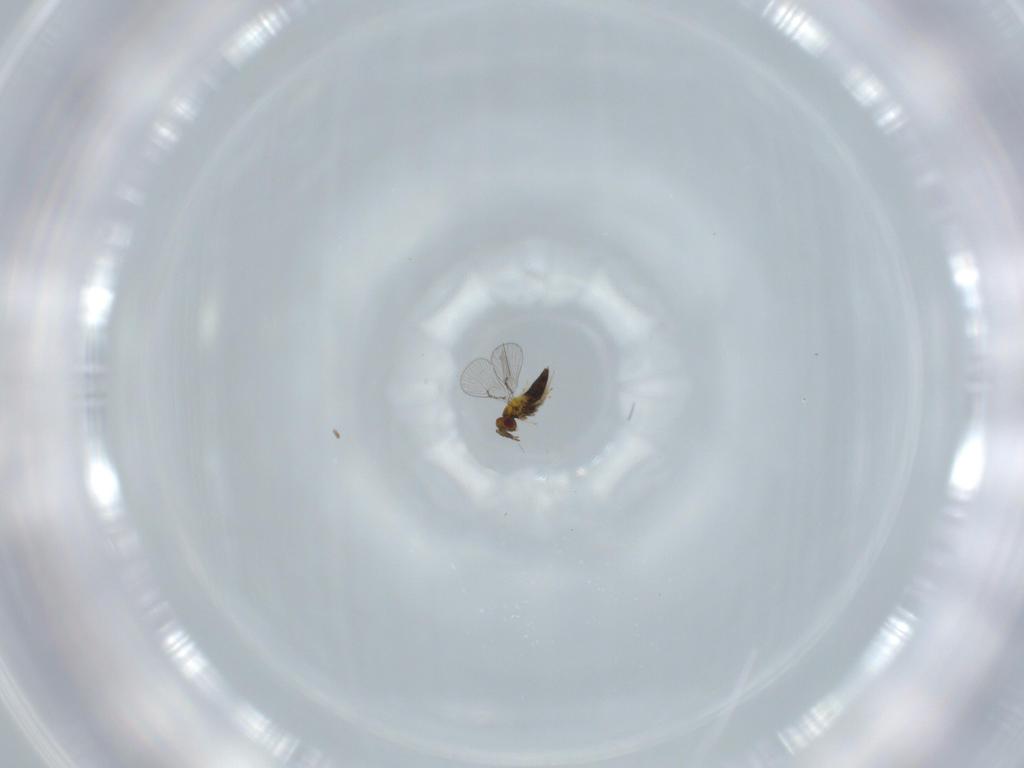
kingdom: Animalia
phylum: Arthropoda
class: Insecta
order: Hymenoptera
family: Trichogrammatidae
